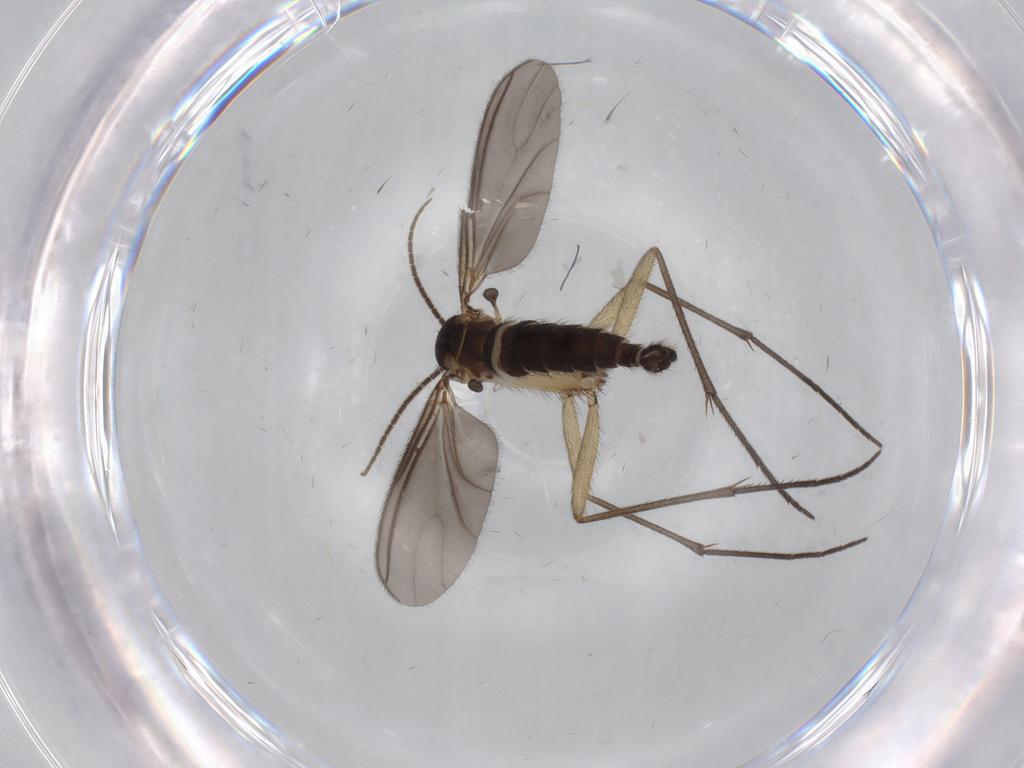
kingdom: Animalia
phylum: Arthropoda
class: Insecta
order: Diptera
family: Sciaridae
